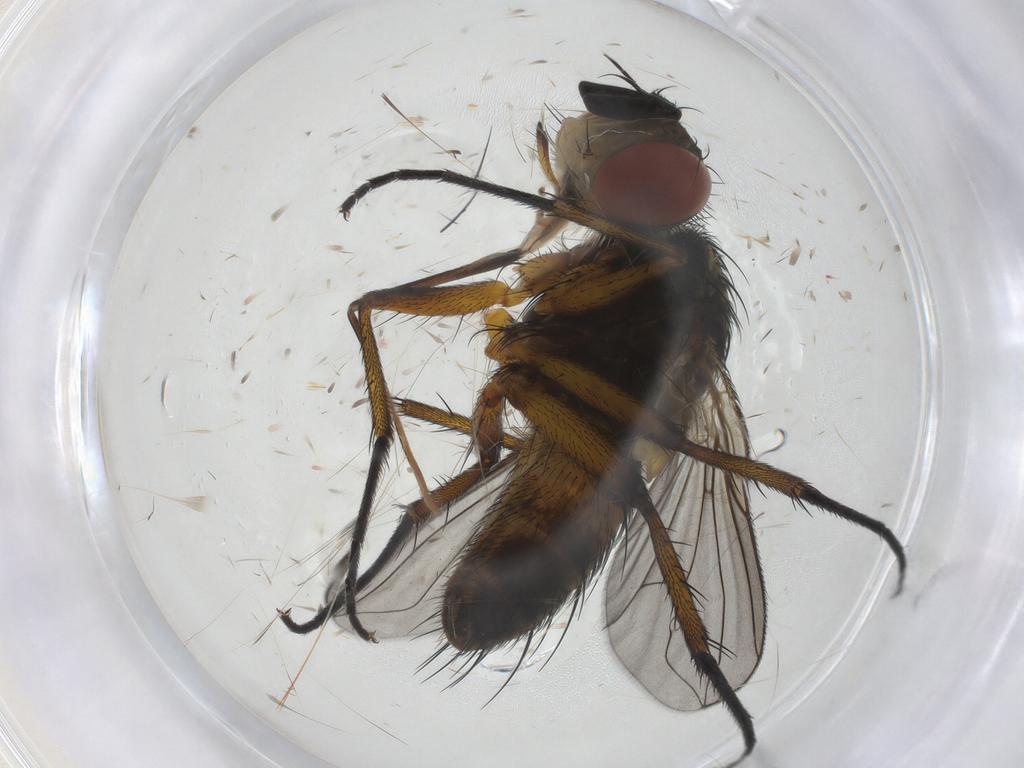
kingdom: Animalia
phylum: Arthropoda
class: Insecta
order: Diptera
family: Tachinidae
